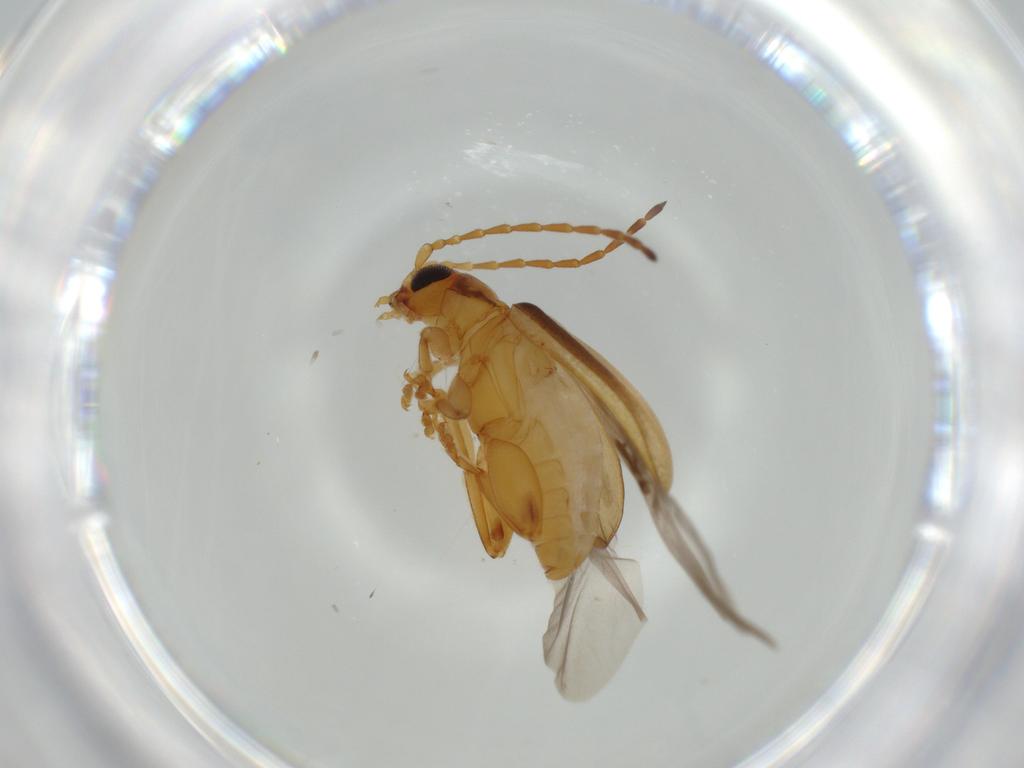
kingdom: Animalia
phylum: Arthropoda
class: Insecta
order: Coleoptera
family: Chrysomelidae
